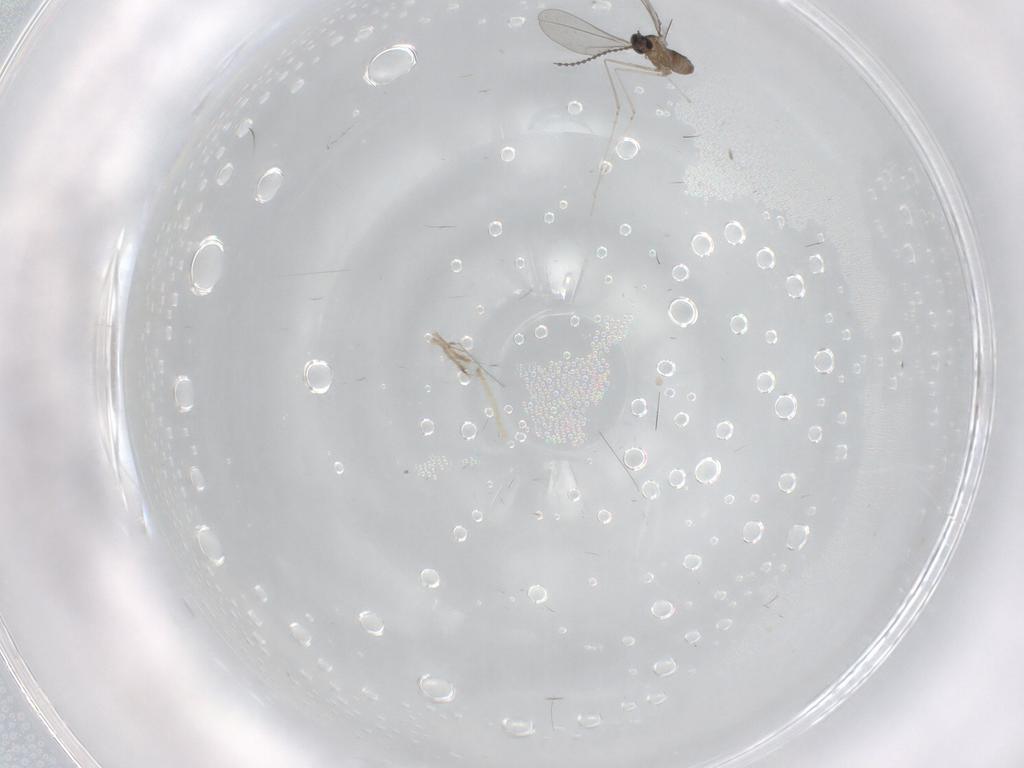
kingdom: Animalia
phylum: Arthropoda
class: Insecta
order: Diptera
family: Cecidomyiidae
